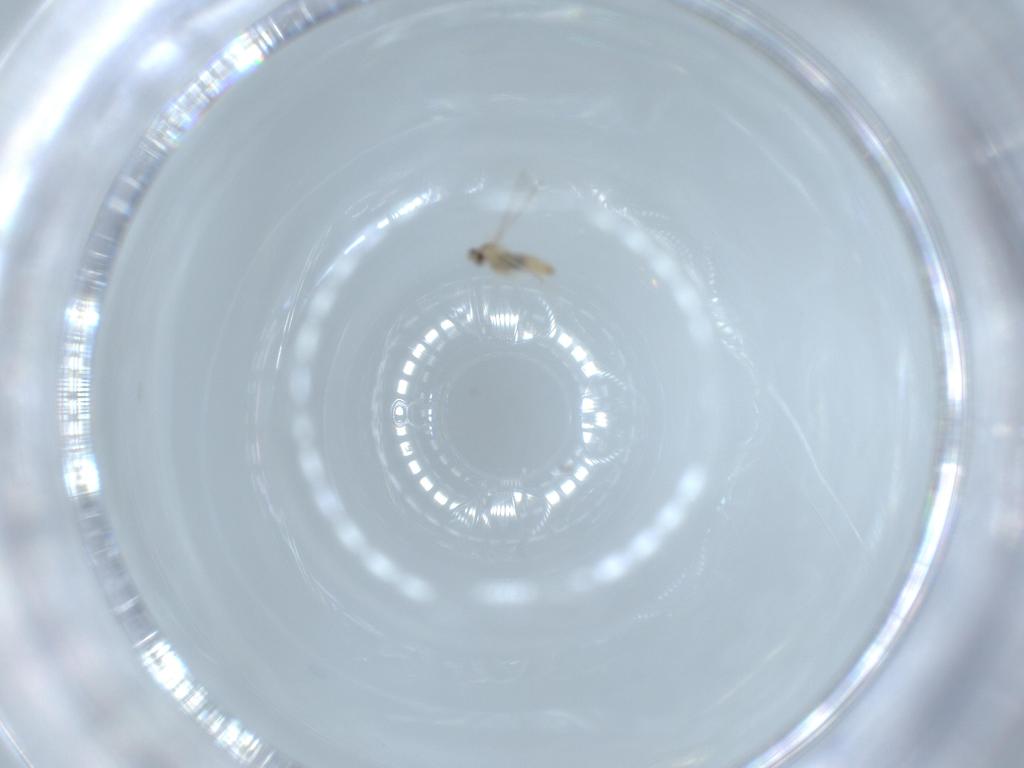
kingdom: Animalia
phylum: Arthropoda
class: Insecta
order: Diptera
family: Cecidomyiidae
